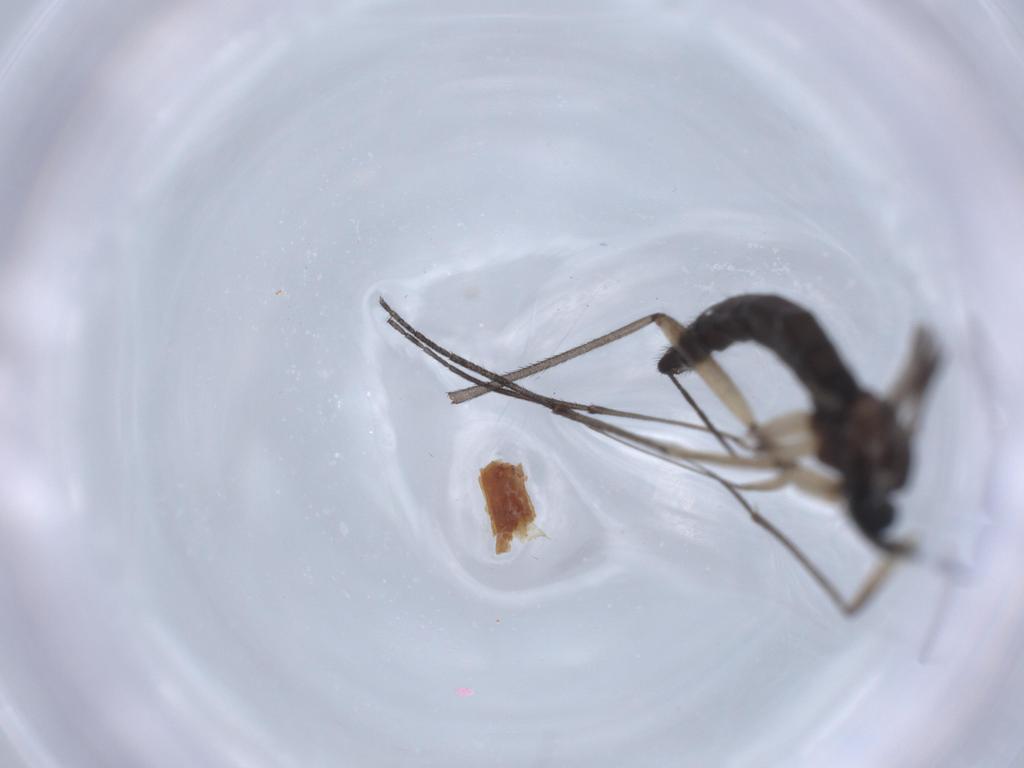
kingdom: Animalia
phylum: Arthropoda
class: Insecta
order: Diptera
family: Sciaridae
